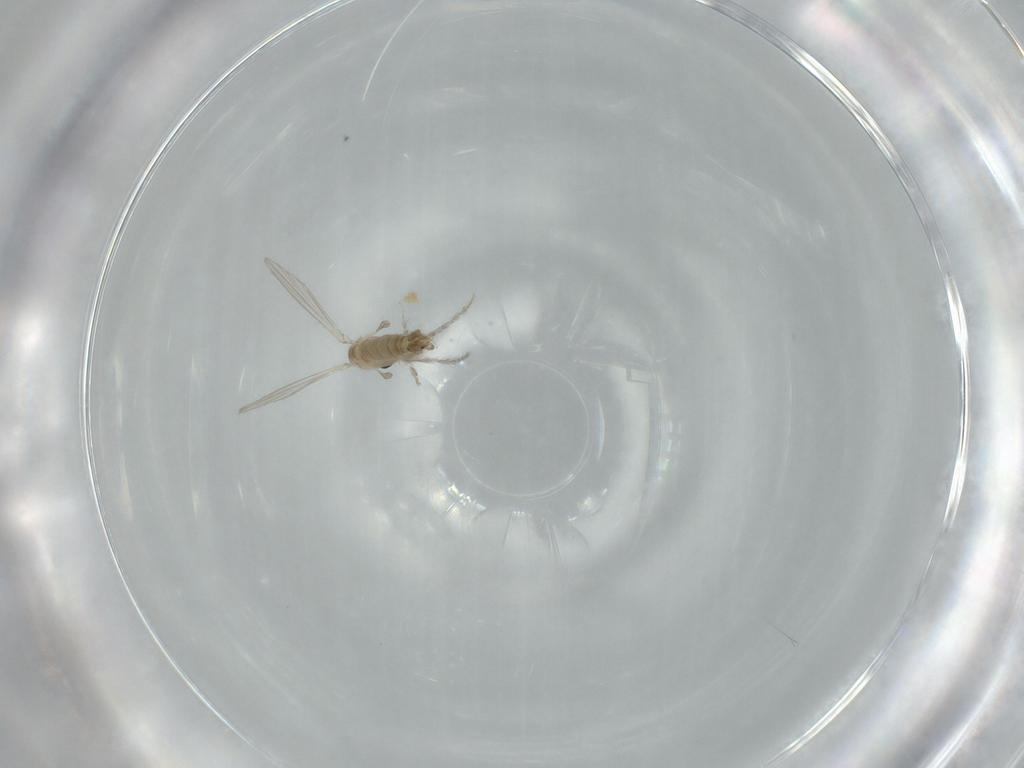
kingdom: Animalia
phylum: Arthropoda
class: Insecta
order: Diptera
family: Psychodidae
